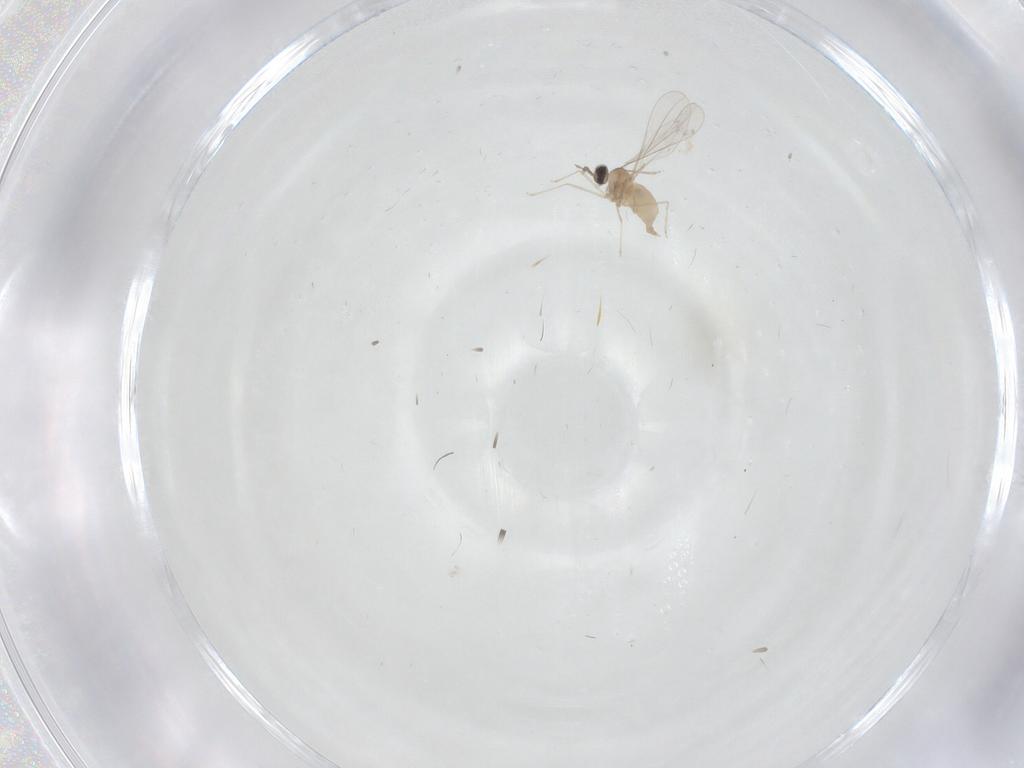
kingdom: Animalia
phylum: Arthropoda
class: Insecta
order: Diptera
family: Cecidomyiidae
